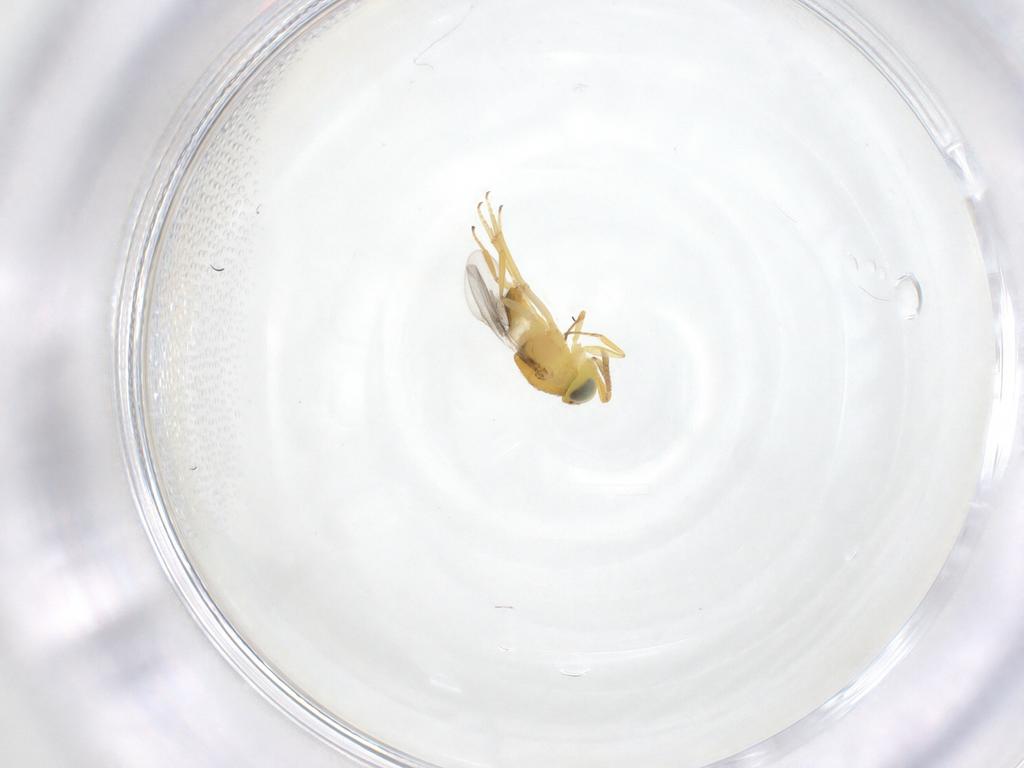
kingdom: Animalia
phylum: Arthropoda
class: Insecta
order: Hymenoptera
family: Encyrtidae
